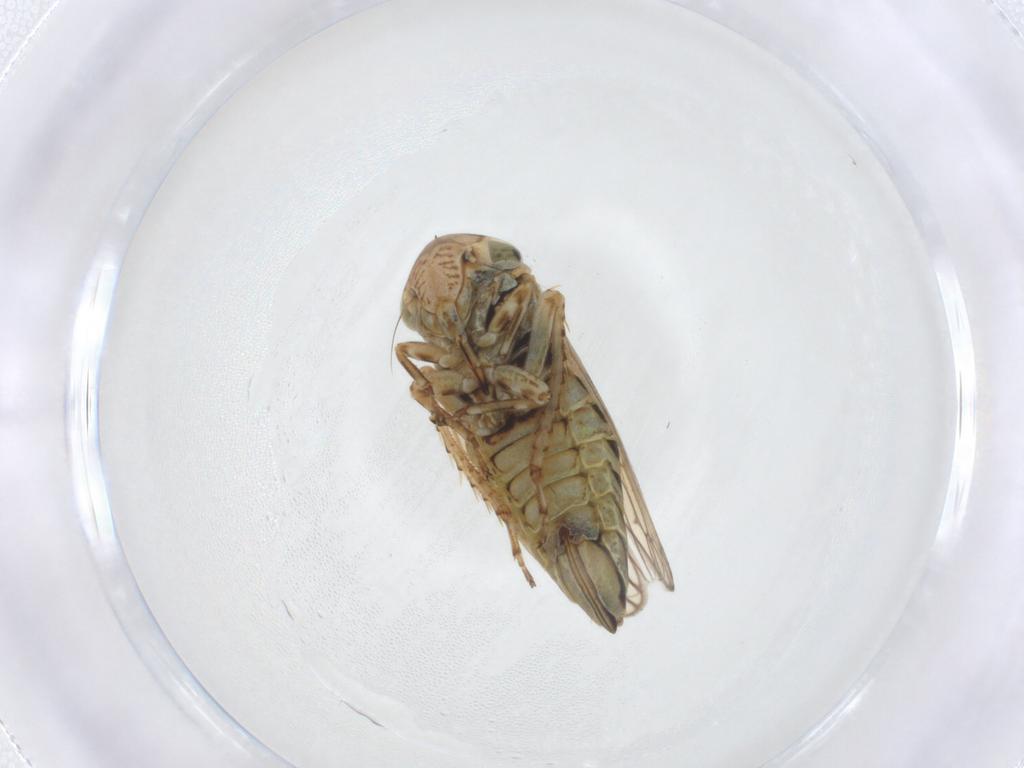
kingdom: Animalia
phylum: Arthropoda
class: Insecta
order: Hemiptera
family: Cicadellidae
